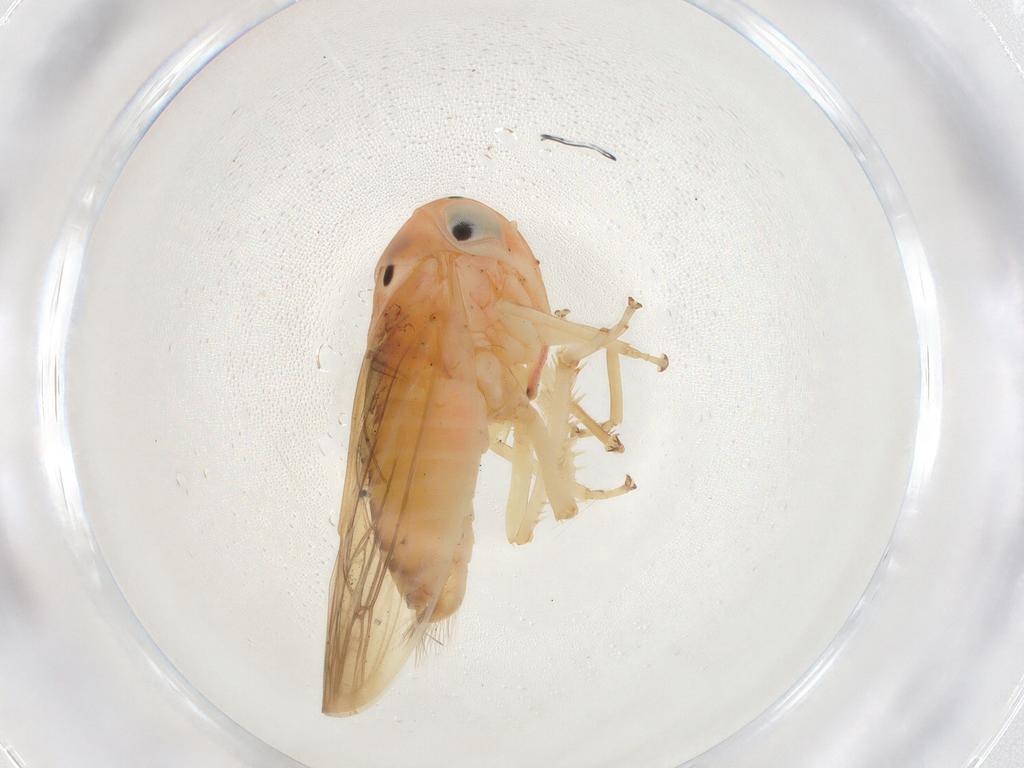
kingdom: Animalia
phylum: Arthropoda
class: Insecta
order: Hemiptera
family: Cicadellidae
